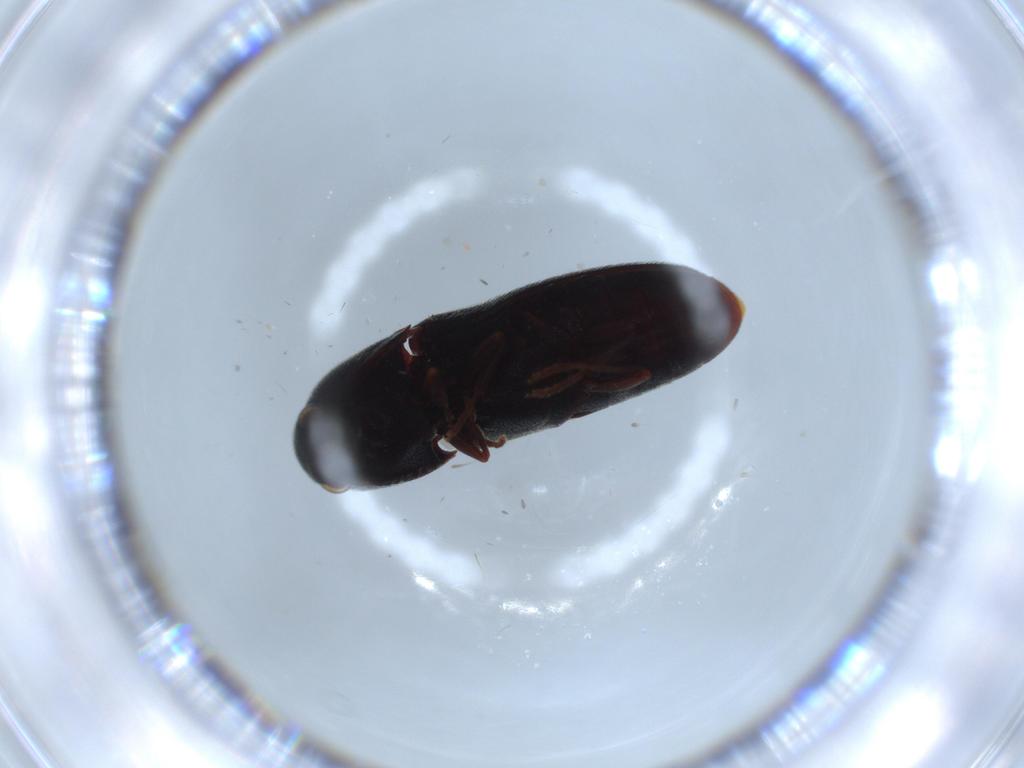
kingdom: Animalia
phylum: Arthropoda
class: Insecta
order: Coleoptera
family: Eucnemidae
